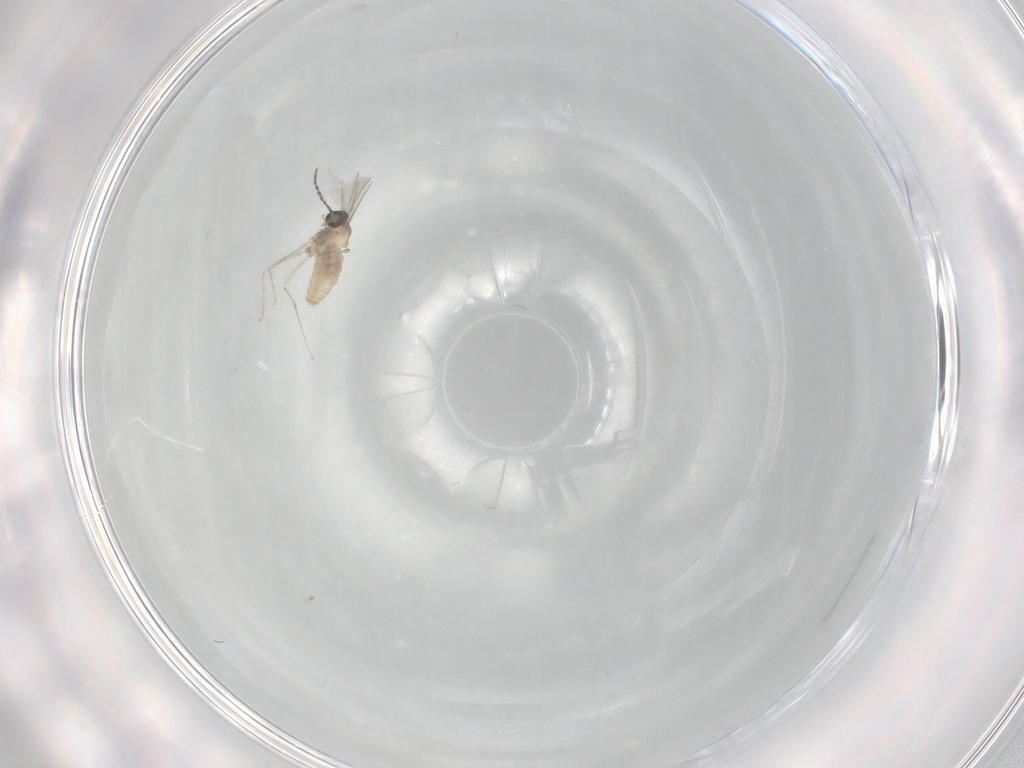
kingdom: Animalia
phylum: Arthropoda
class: Insecta
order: Diptera
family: Cecidomyiidae
